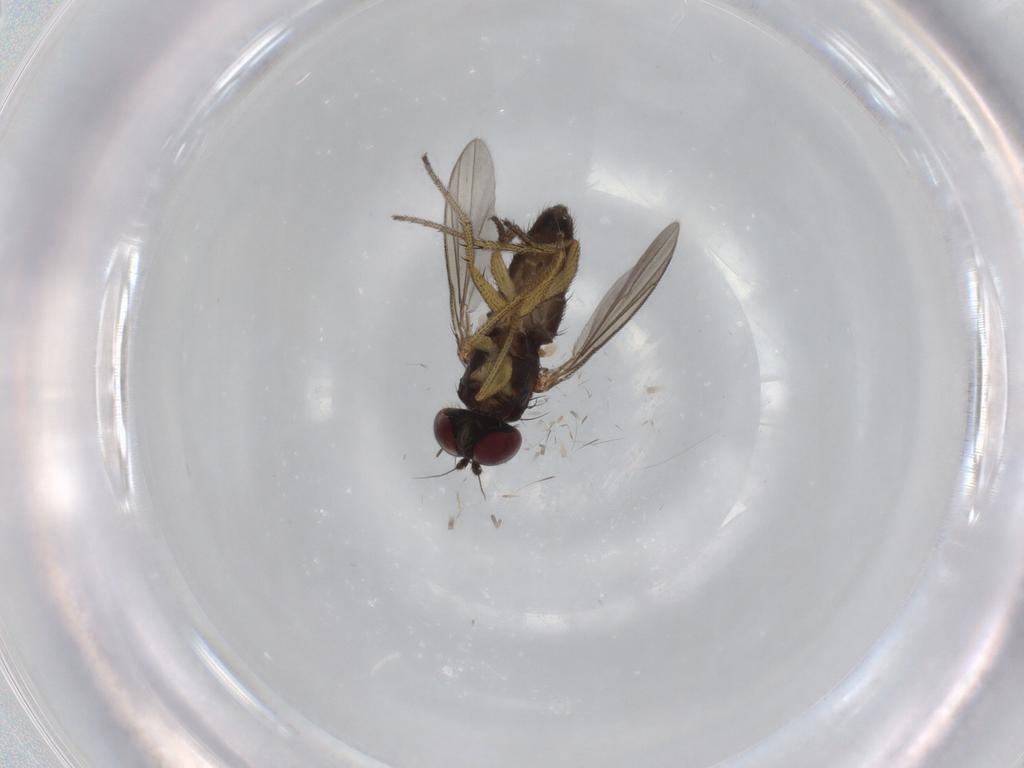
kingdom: Animalia
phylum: Arthropoda
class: Insecta
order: Diptera
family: Sciaridae
